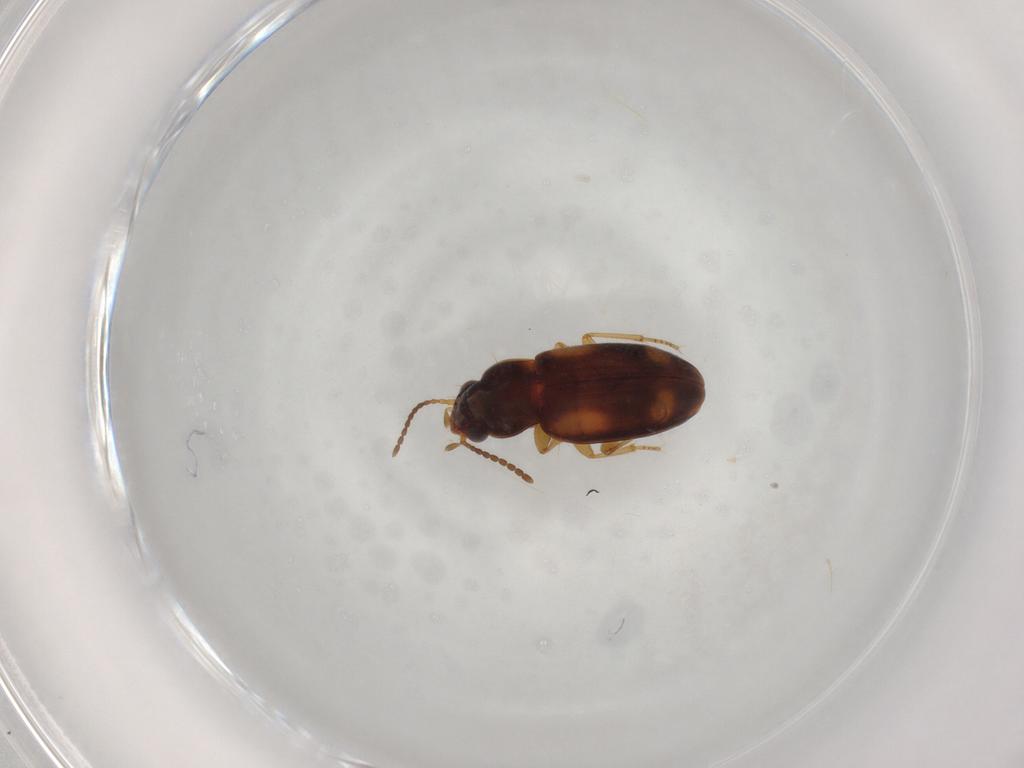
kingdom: Animalia
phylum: Arthropoda
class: Insecta
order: Coleoptera
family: Carabidae
